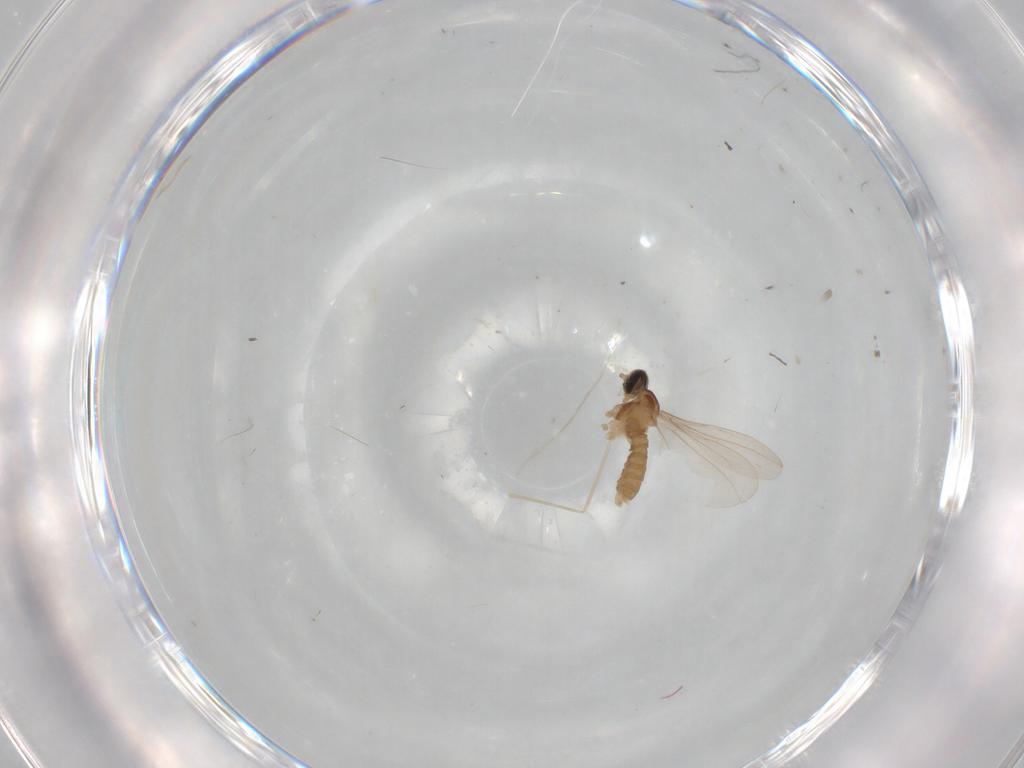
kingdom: Animalia
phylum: Arthropoda
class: Insecta
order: Diptera
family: Cecidomyiidae
